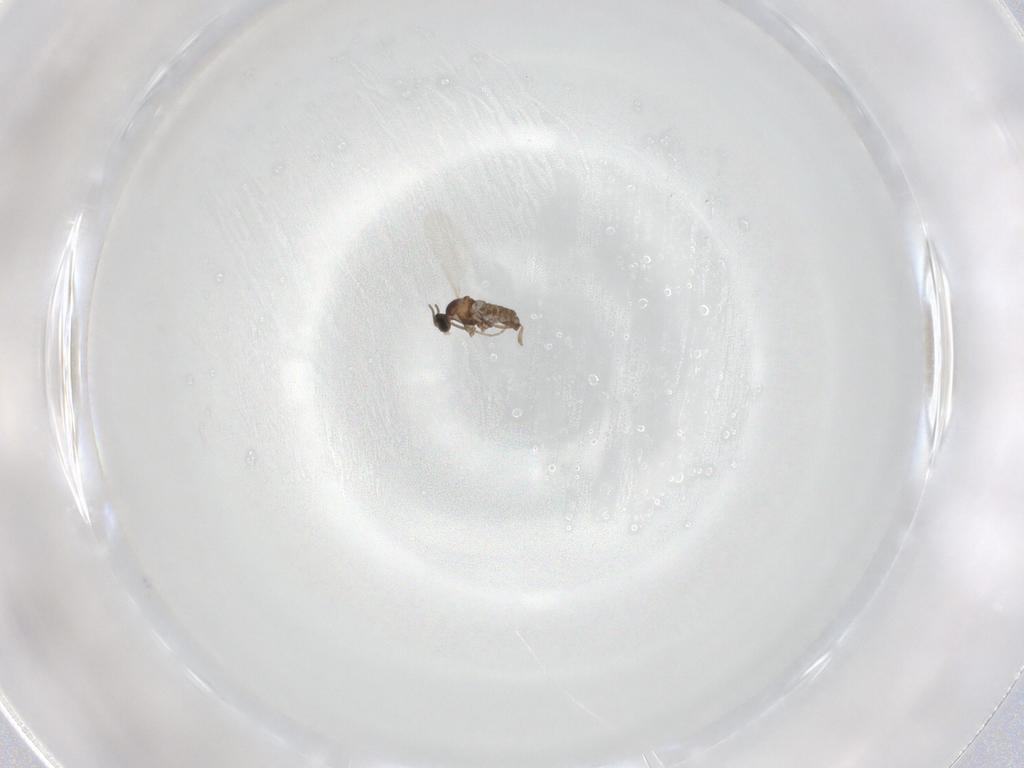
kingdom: Animalia
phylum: Arthropoda
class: Insecta
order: Diptera
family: Cecidomyiidae
